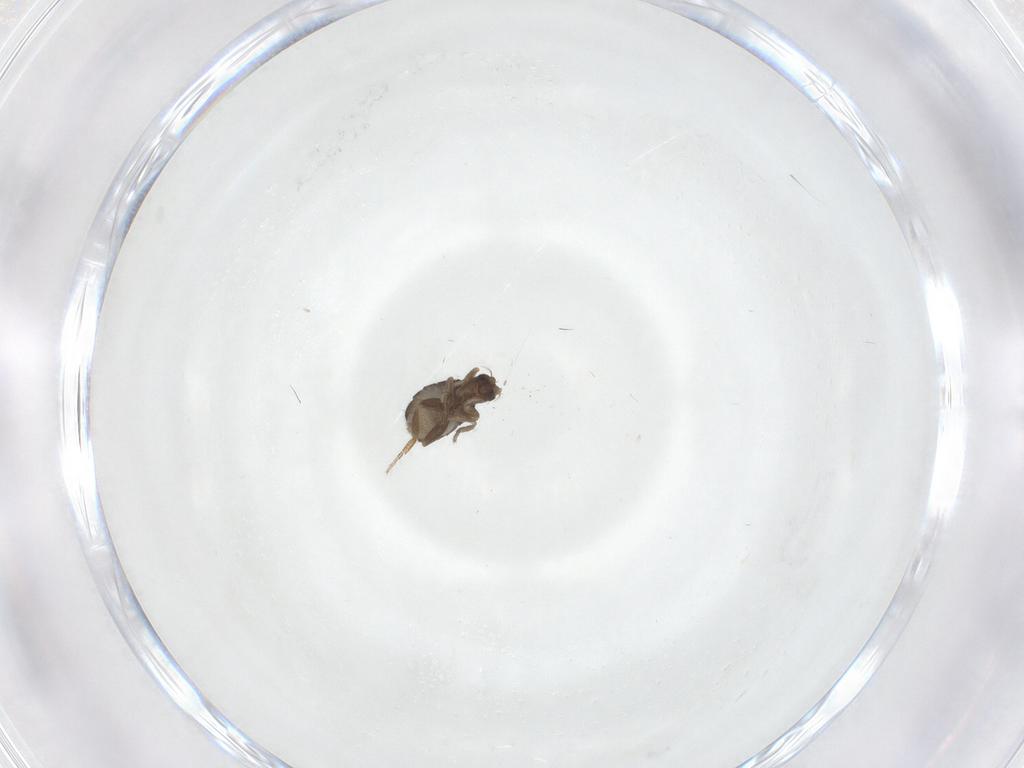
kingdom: Animalia
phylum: Arthropoda
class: Insecta
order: Diptera
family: Phoridae
